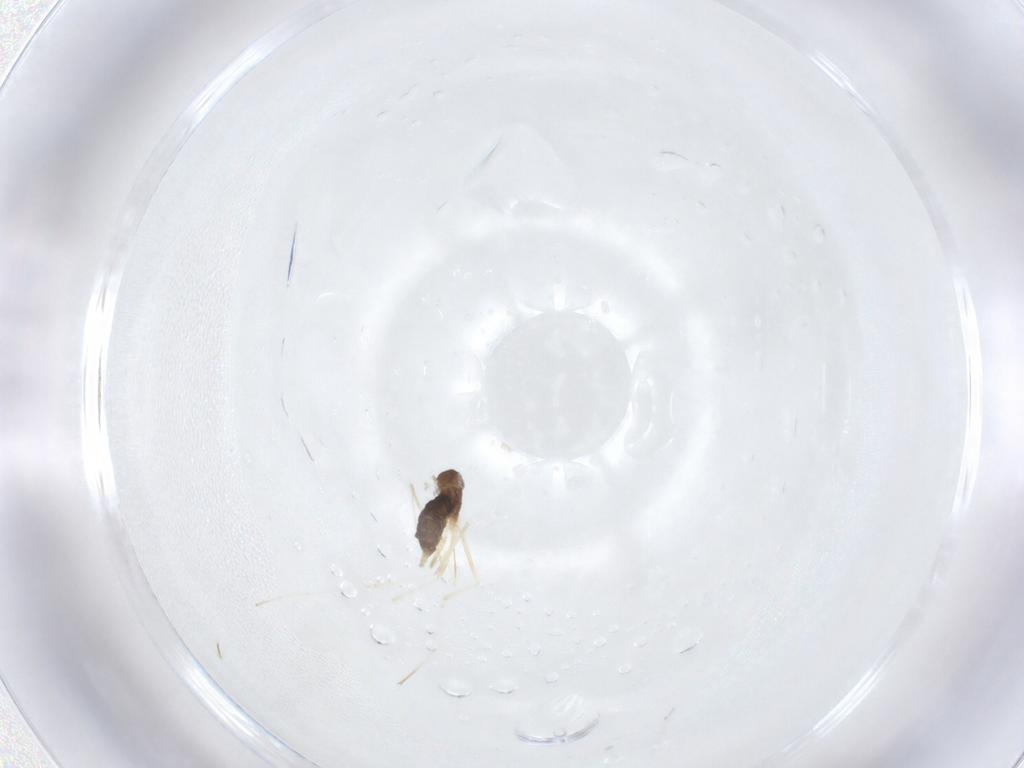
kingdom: Animalia
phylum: Arthropoda
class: Insecta
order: Diptera
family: Cecidomyiidae
